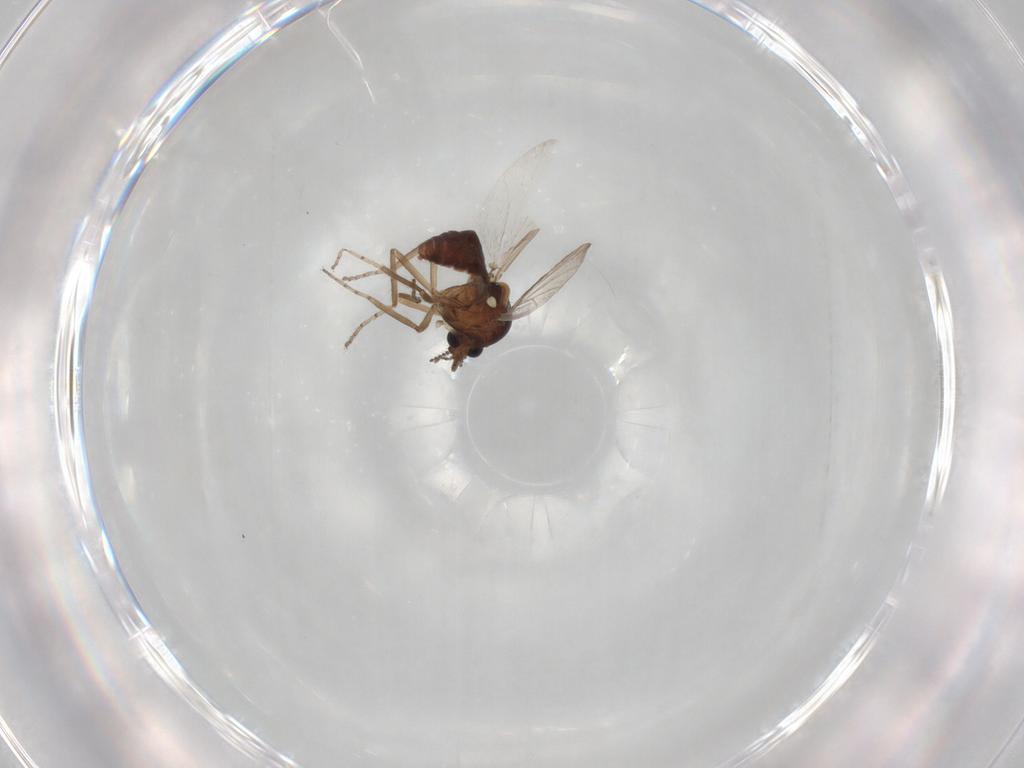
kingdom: Animalia
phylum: Arthropoda
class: Insecta
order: Diptera
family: Ceratopogonidae
